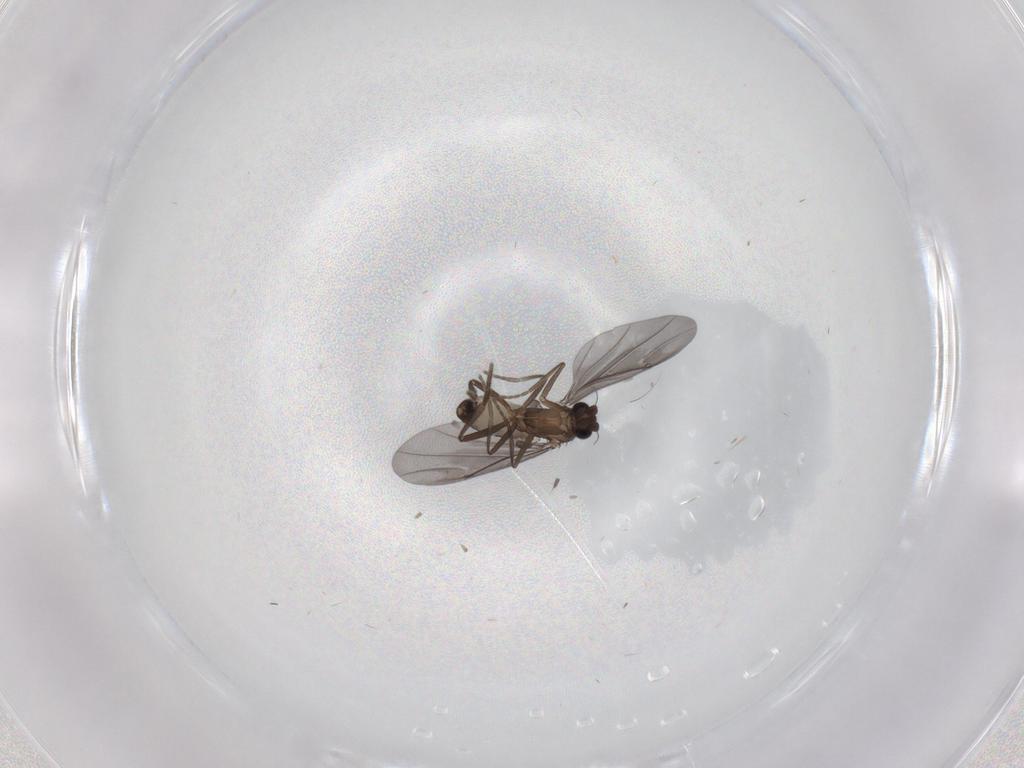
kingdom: Animalia
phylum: Arthropoda
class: Insecta
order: Diptera
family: Phoridae
